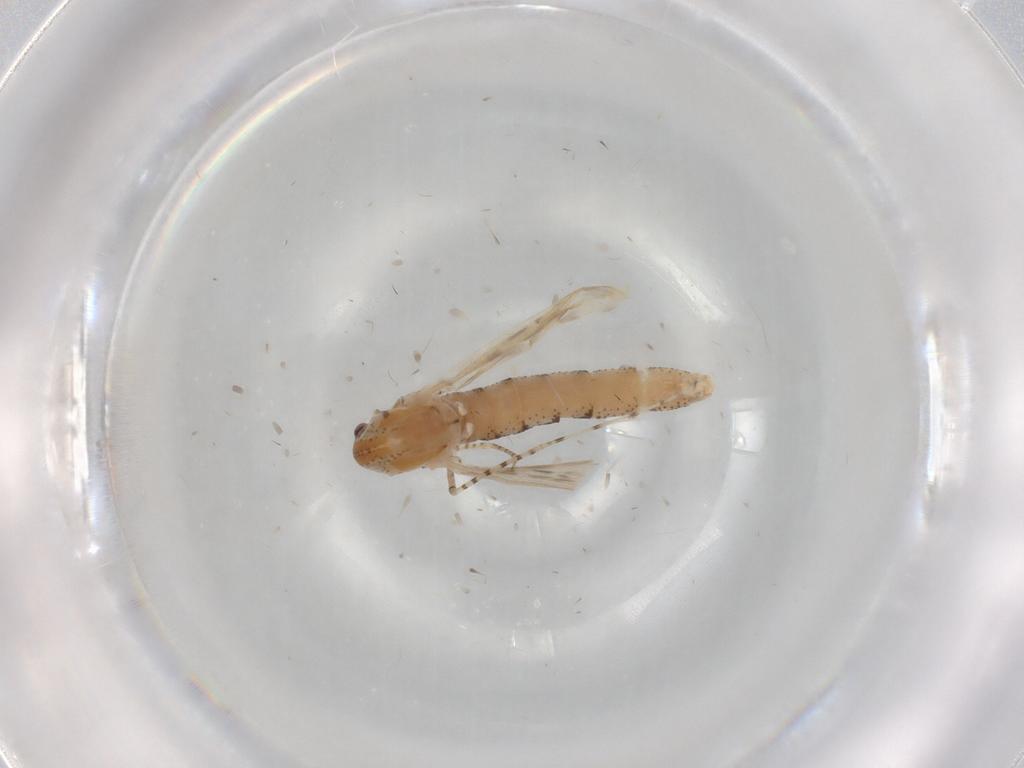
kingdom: Animalia
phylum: Arthropoda
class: Insecta
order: Diptera
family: Chaoboridae
